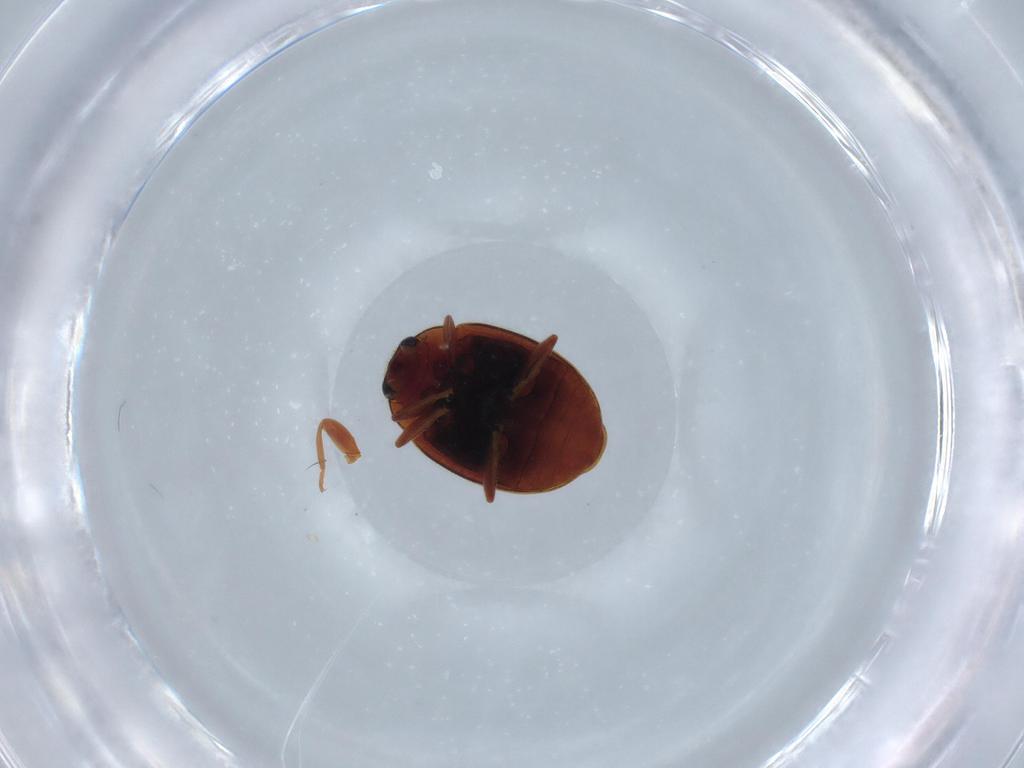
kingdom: Animalia
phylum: Arthropoda
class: Insecta
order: Coleoptera
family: Coccinellidae
